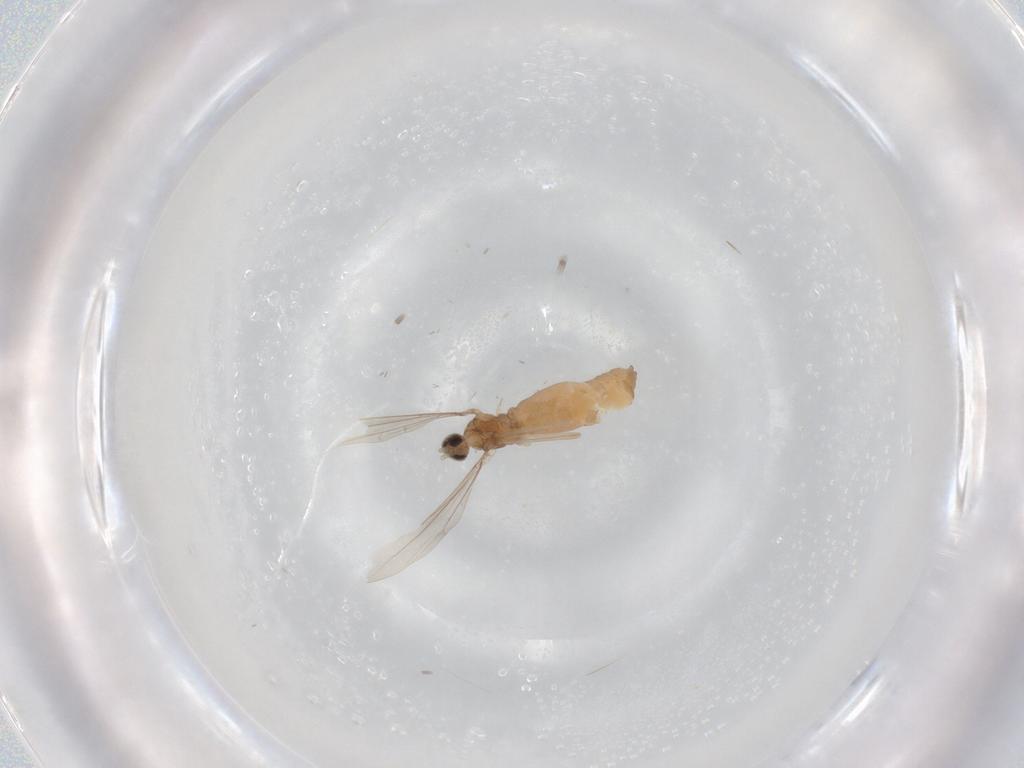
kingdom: Animalia
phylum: Arthropoda
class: Insecta
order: Diptera
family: Cecidomyiidae
